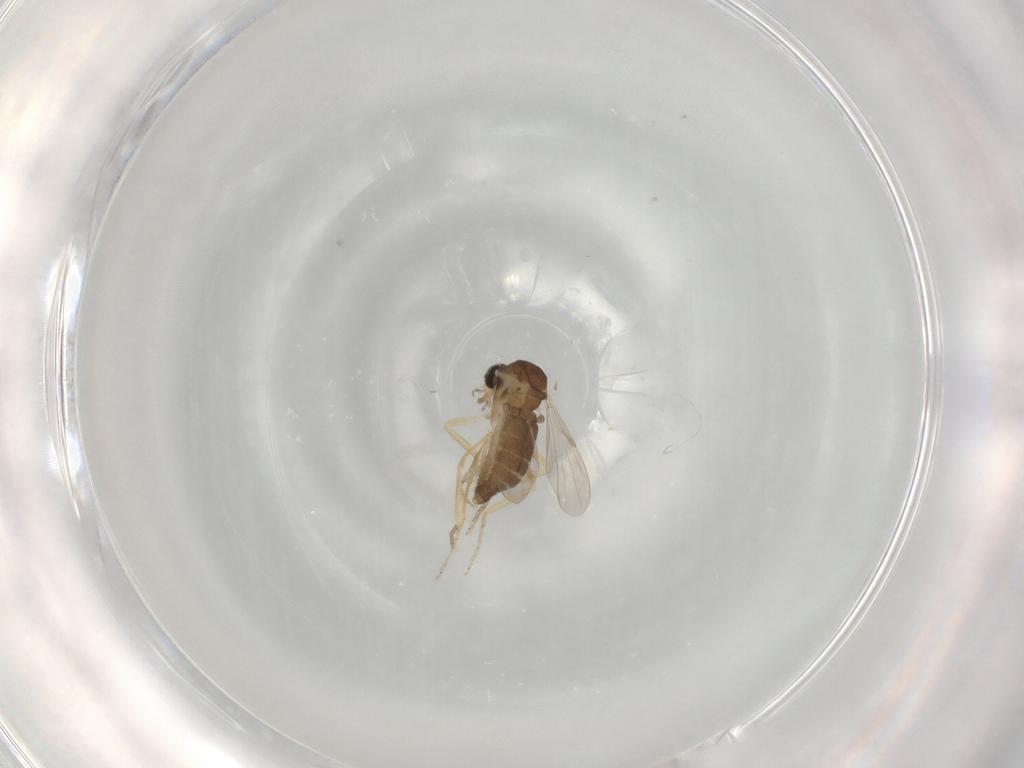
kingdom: Animalia
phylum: Arthropoda
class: Insecta
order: Diptera
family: Ceratopogonidae
